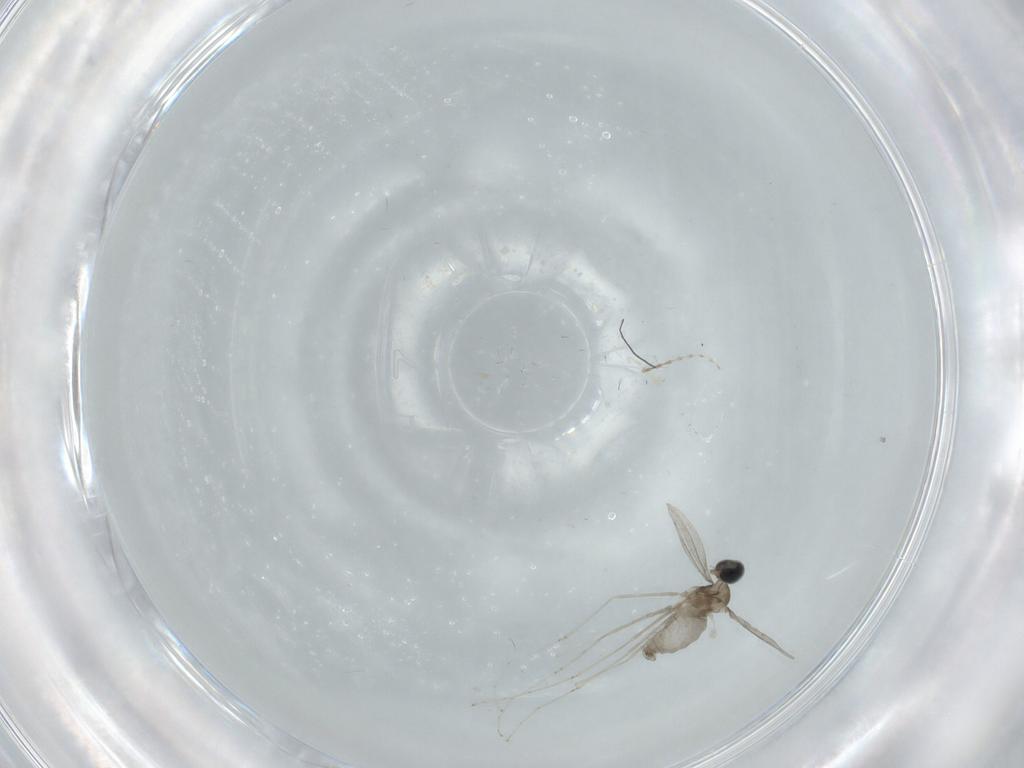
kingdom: Animalia
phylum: Arthropoda
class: Insecta
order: Diptera
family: Cecidomyiidae
